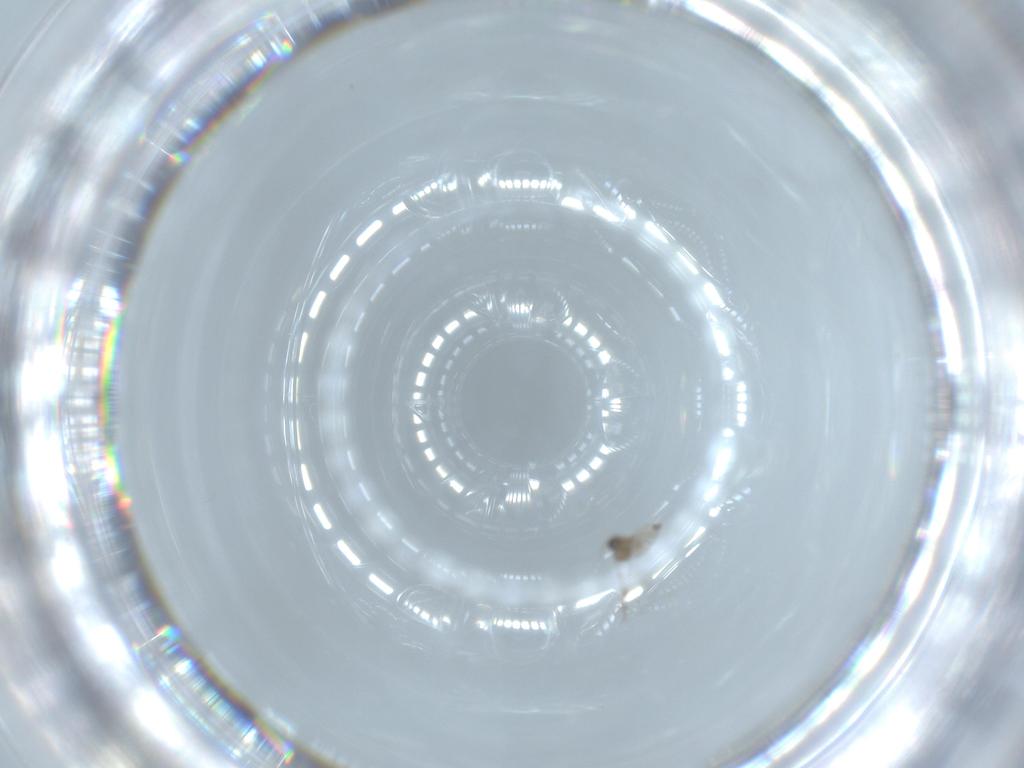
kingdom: Animalia
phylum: Arthropoda
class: Insecta
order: Diptera
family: Cecidomyiidae
